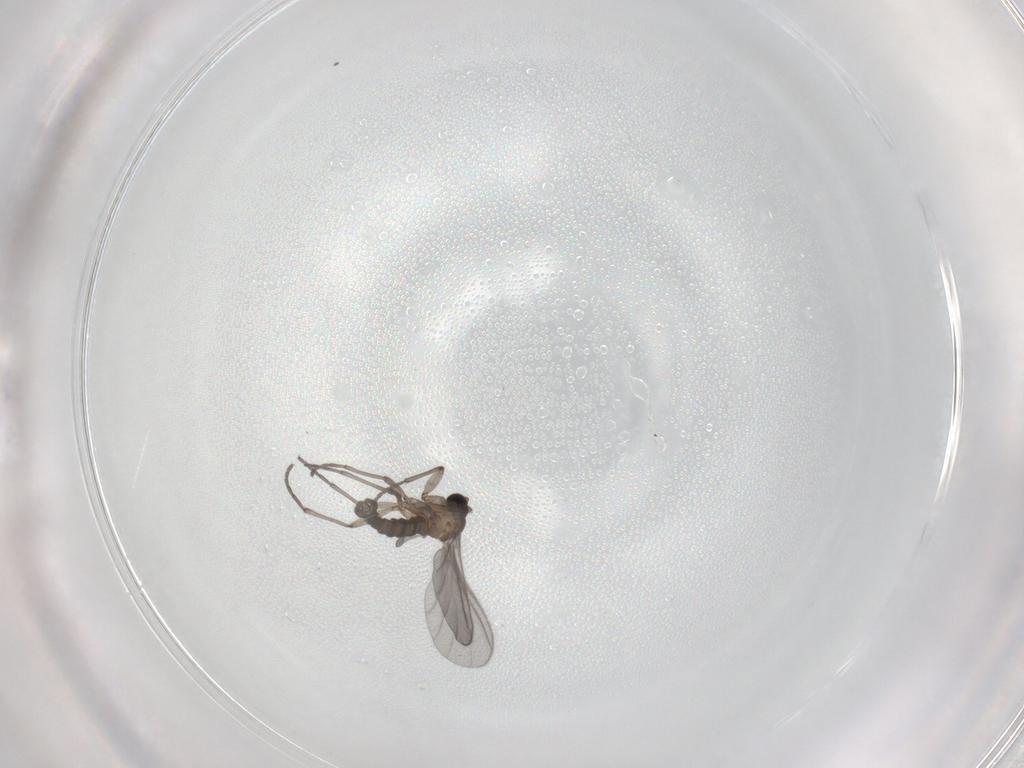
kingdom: Animalia
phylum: Arthropoda
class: Insecta
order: Diptera
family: Sciaridae
